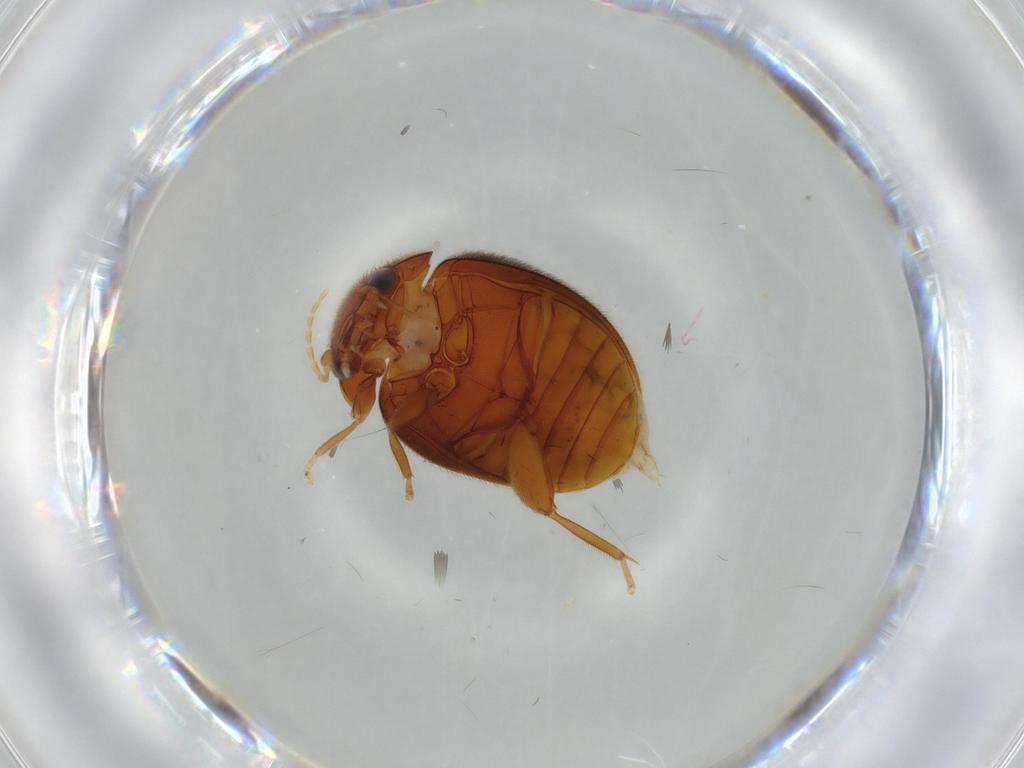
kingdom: Animalia
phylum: Arthropoda
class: Insecta
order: Coleoptera
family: Scirtidae
